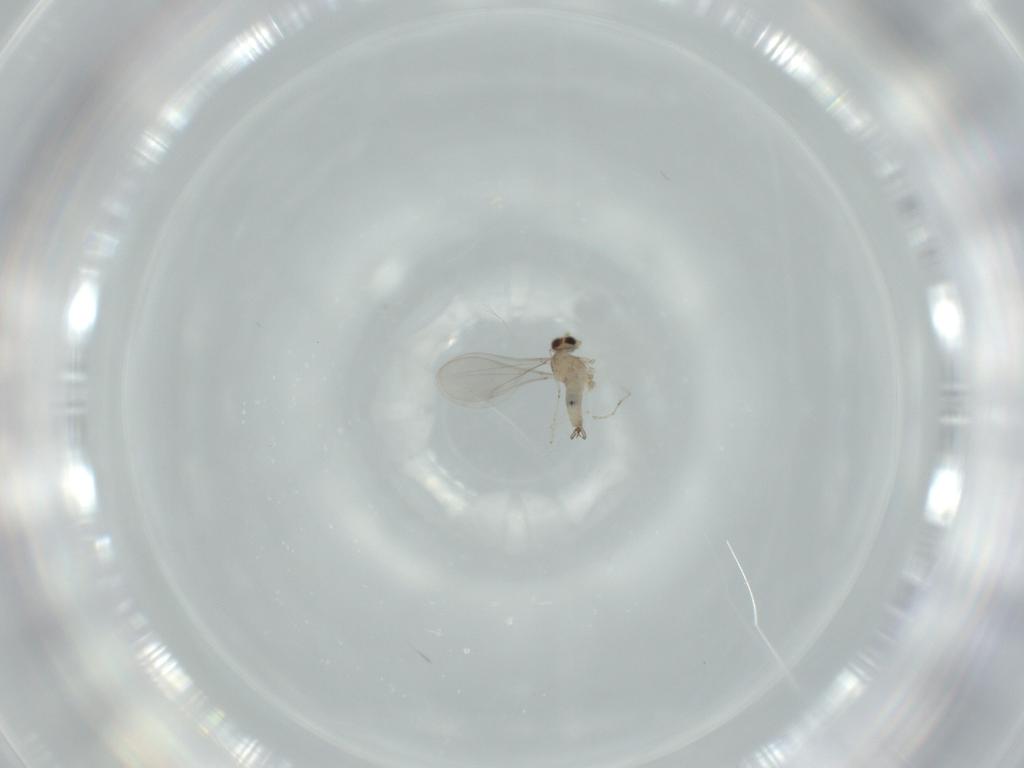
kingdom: Animalia
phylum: Arthropoda
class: Insecta
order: Diptera
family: Cecidomyiidae
